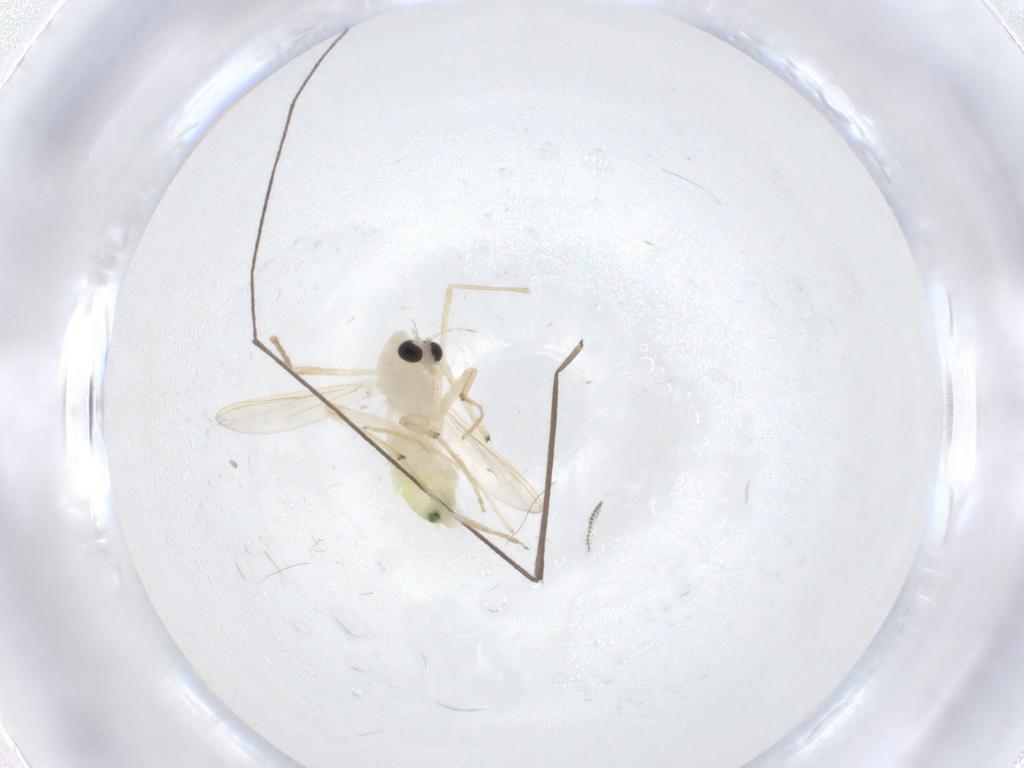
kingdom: Animalia
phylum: Arthropoda
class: Insecta
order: Diptera
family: Chironomidae
